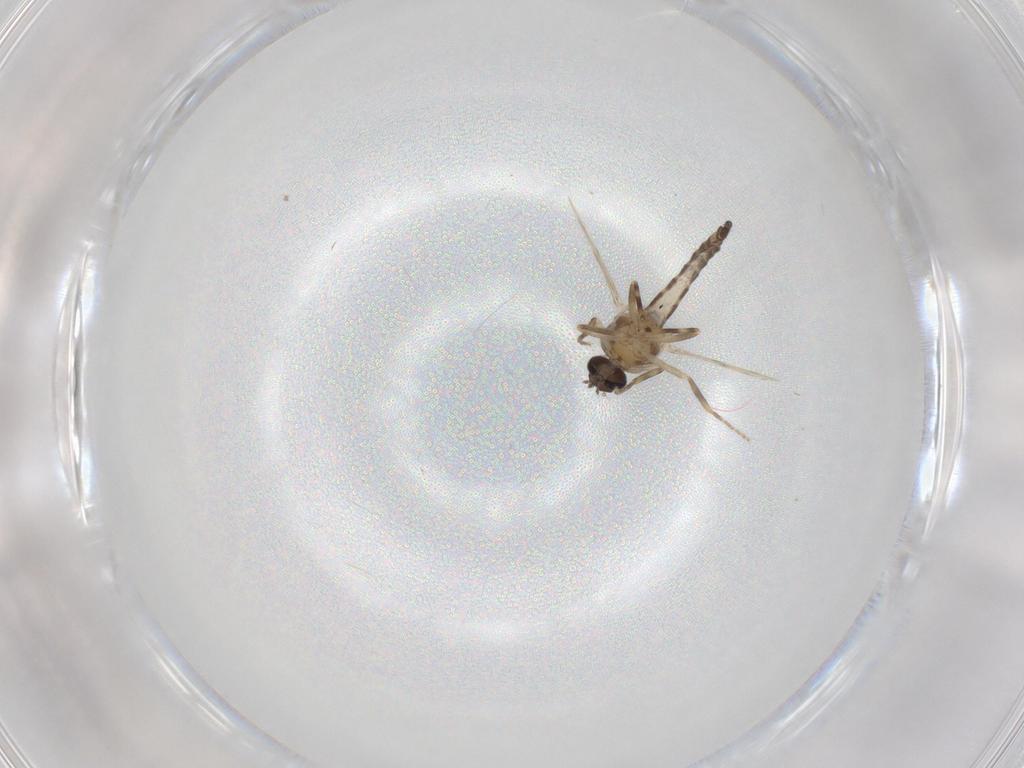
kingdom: Animalia
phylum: Arthropoda
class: Insecta
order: Diptera
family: Ceratopogonidae
